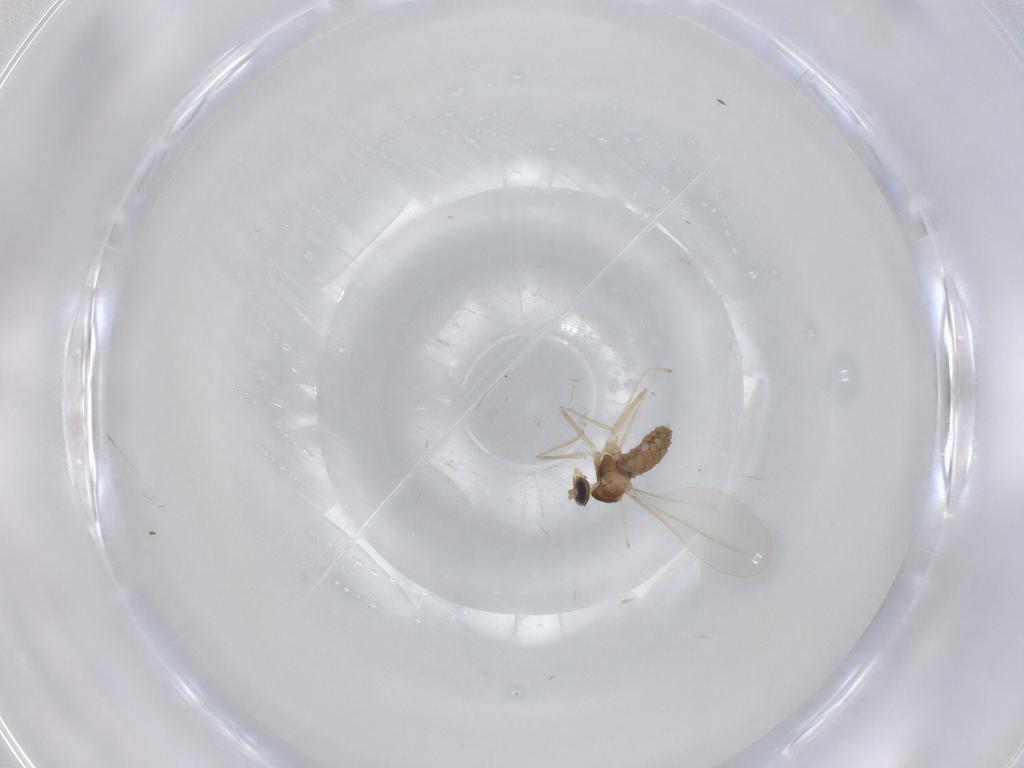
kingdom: Animalia
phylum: Arthropoda
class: Insecta
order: Diptera
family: Cecidomyiidae
